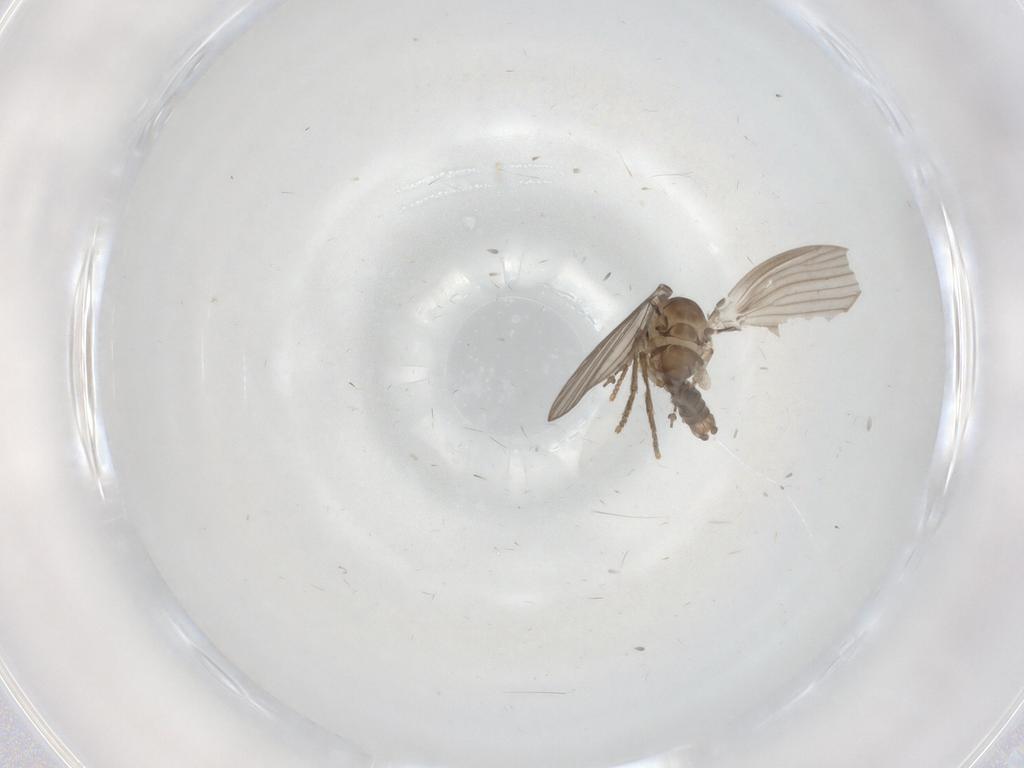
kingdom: Animalia
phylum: Arthropoda
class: Insecta
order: Diptera
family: Psychodidae
